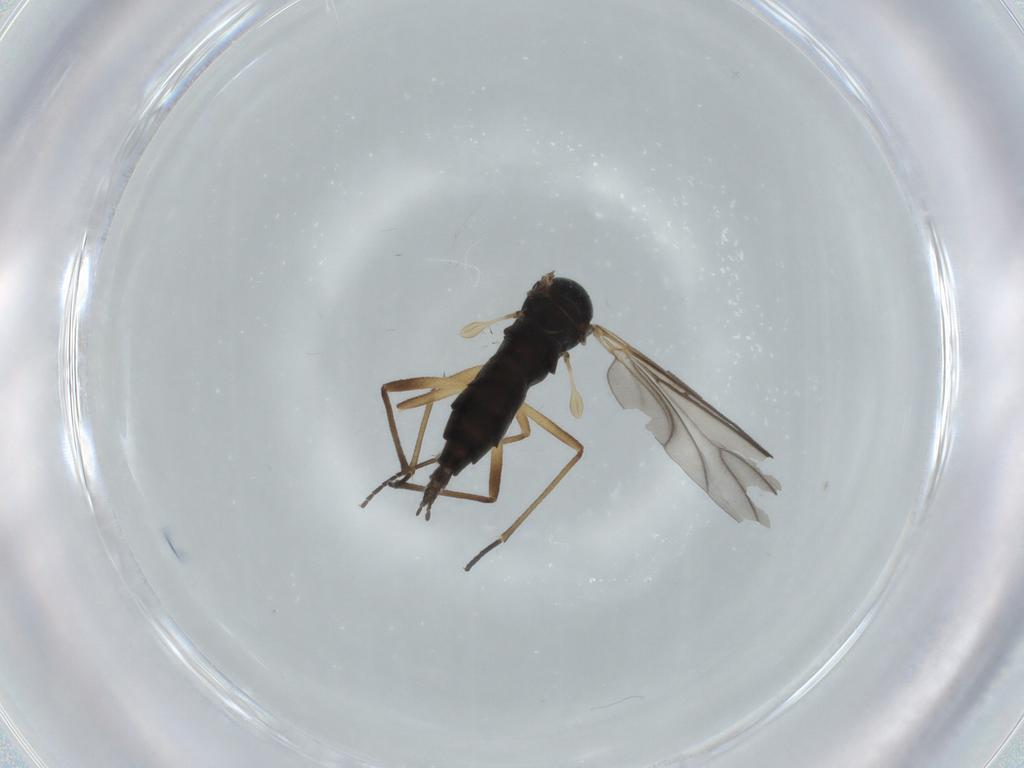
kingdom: Animalia
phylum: Arthropoda
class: Insecta
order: Diptera
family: Sciaridae
